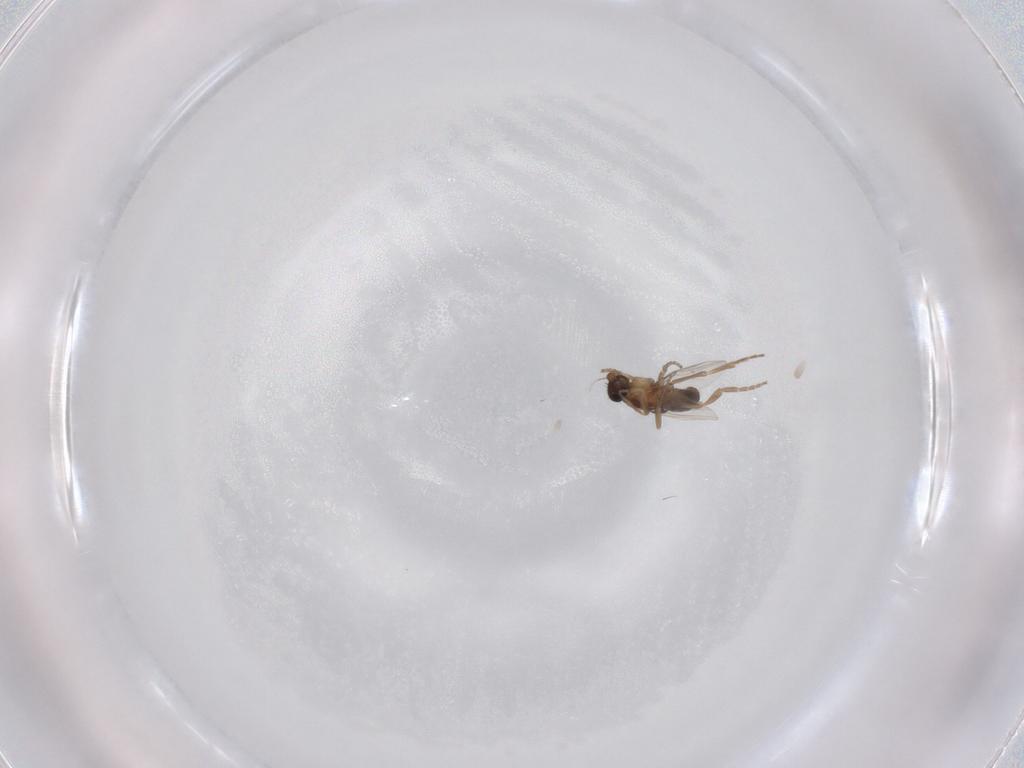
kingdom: Animalia
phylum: Arthropoda
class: Insecta
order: Diptera
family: Phoridae
